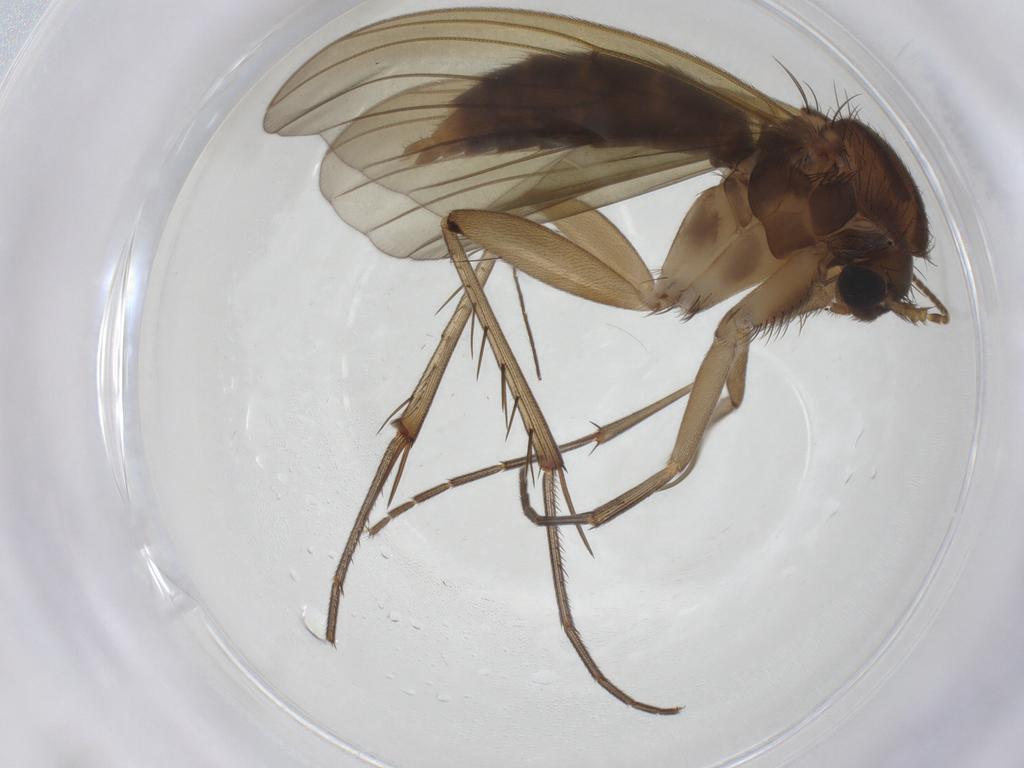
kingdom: Animalia
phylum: Arthropoda
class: Insecta
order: Diptera
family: Mycetophilidae
